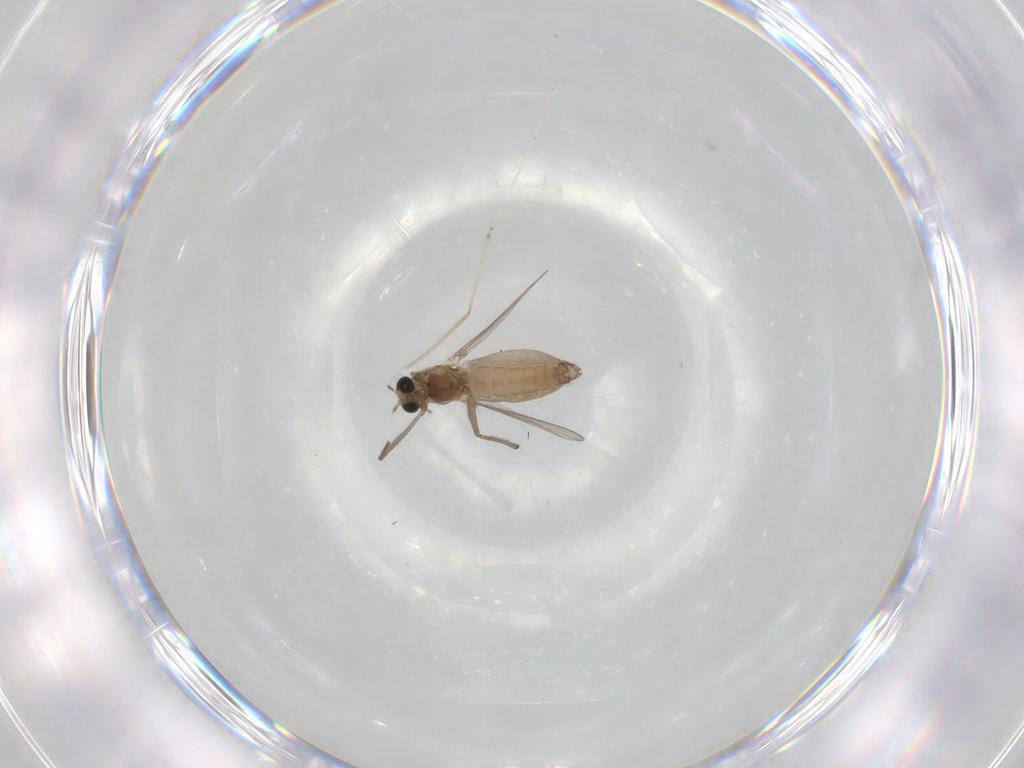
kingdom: Animalia
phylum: Arthropoda
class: Insecta
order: Diptera
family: Chironomidae
